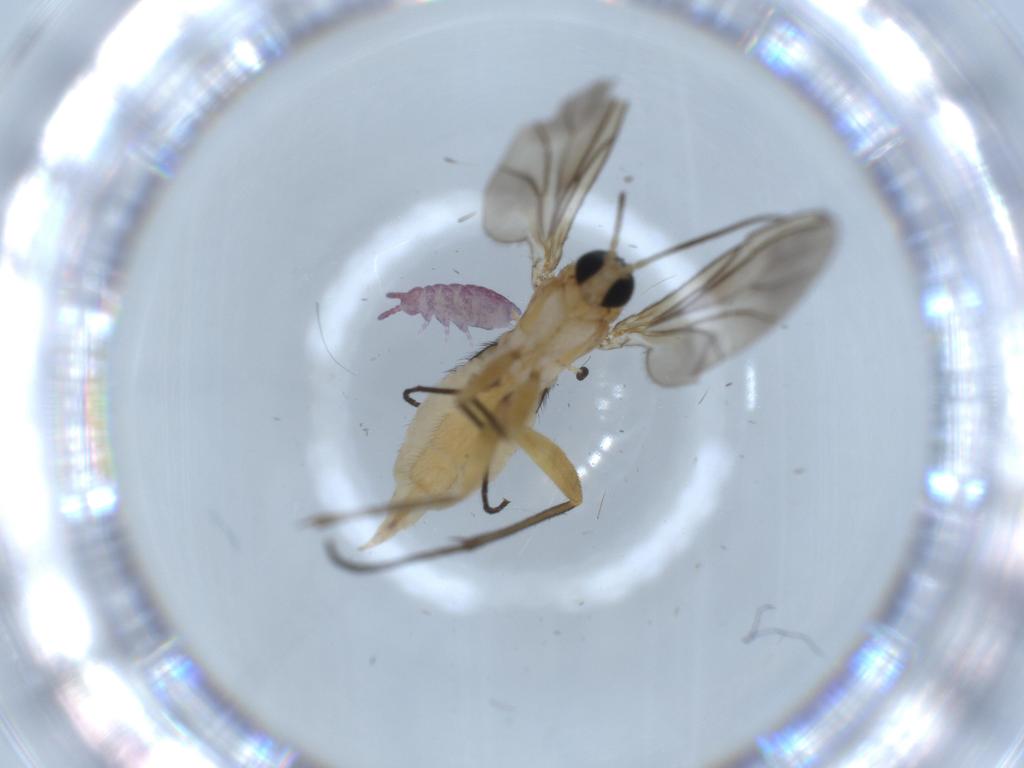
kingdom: Animalia
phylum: Arthropoda
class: Insecta
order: Diptera
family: Sciaridae
